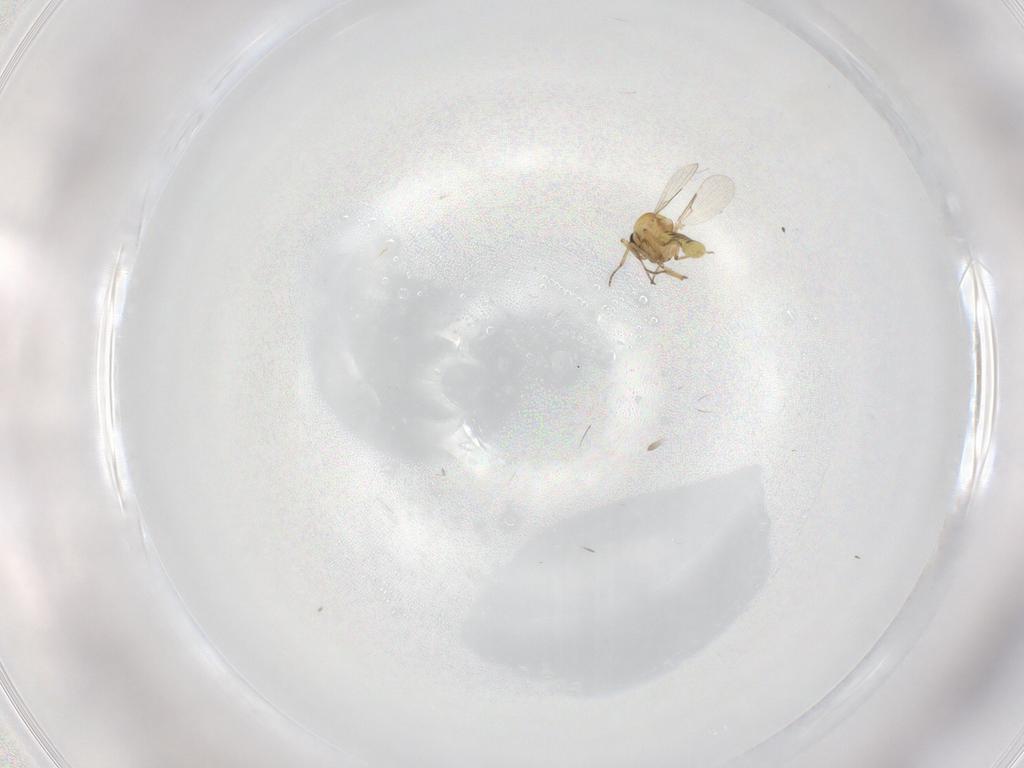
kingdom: Animalia
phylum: Arthropoda
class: Insecta
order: Diptera
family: Ceratopogonidae
